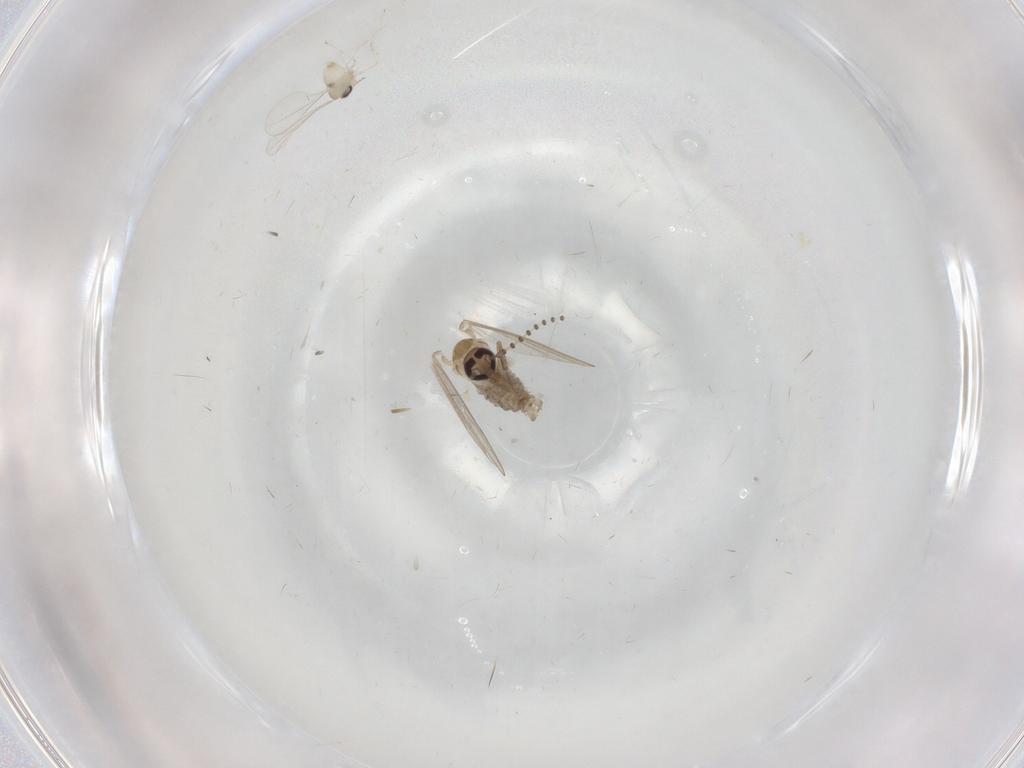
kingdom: Animalia
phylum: Arthropoda
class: Insecta
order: Diptera
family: Psychodidae
